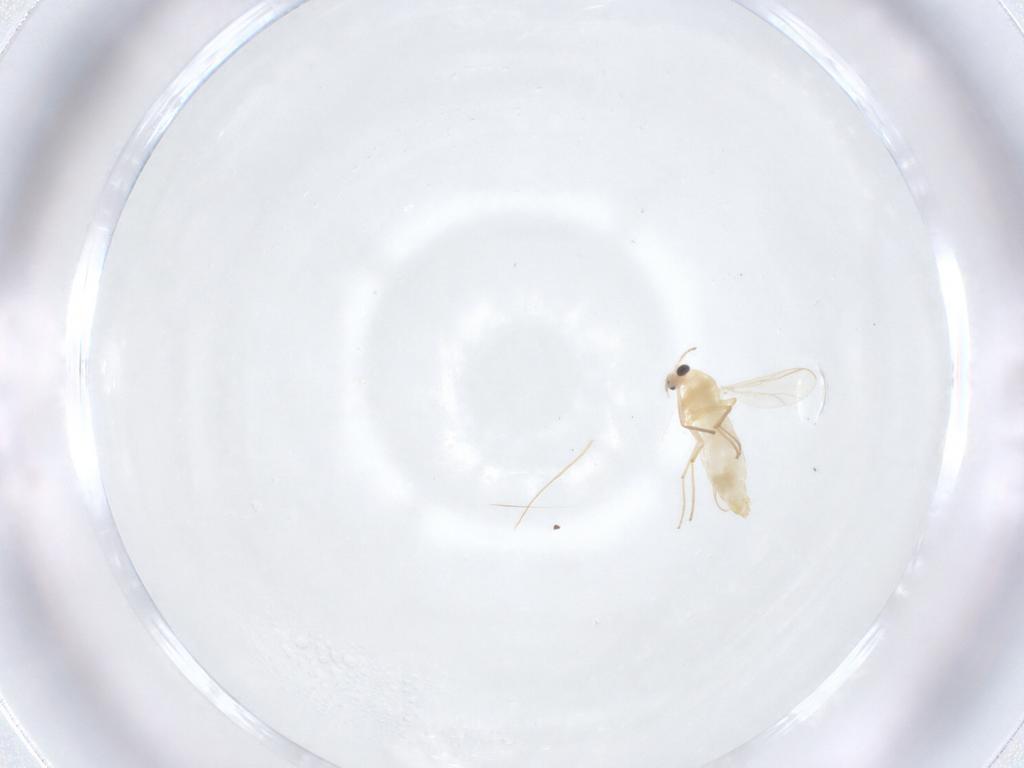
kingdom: Animalia
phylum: Arthropoda
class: Insecta
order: Diptera
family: Chironomidae
